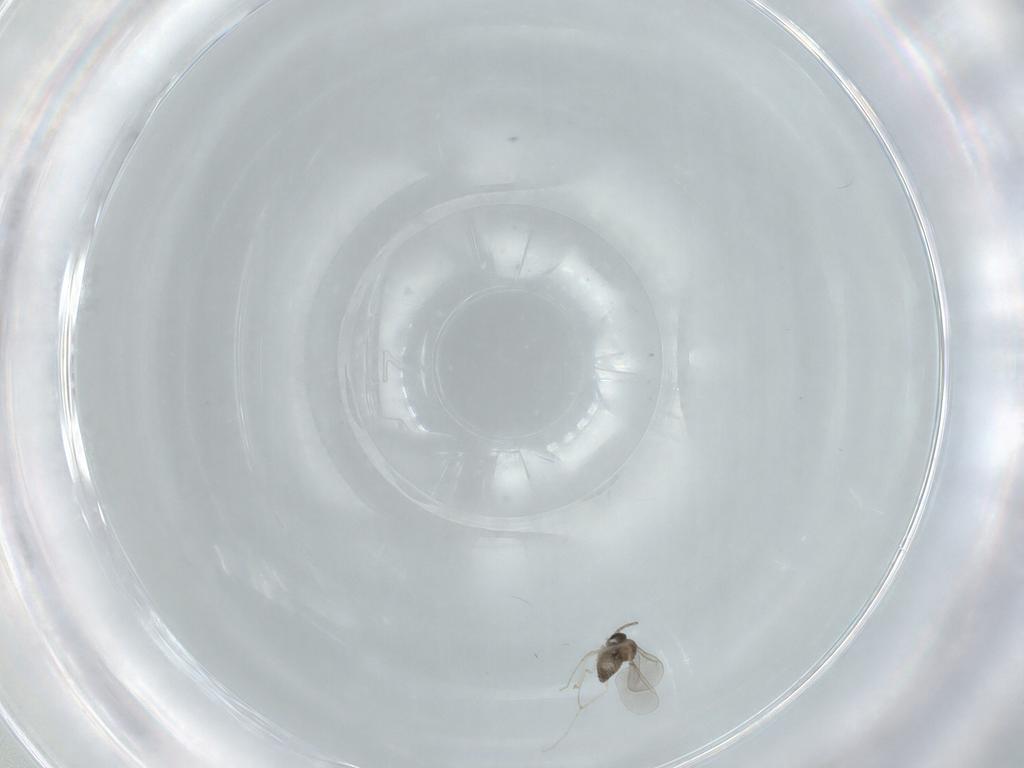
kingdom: Animalia
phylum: Arthropoda
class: Insecta
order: Diptera
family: Cecidomyiidae
